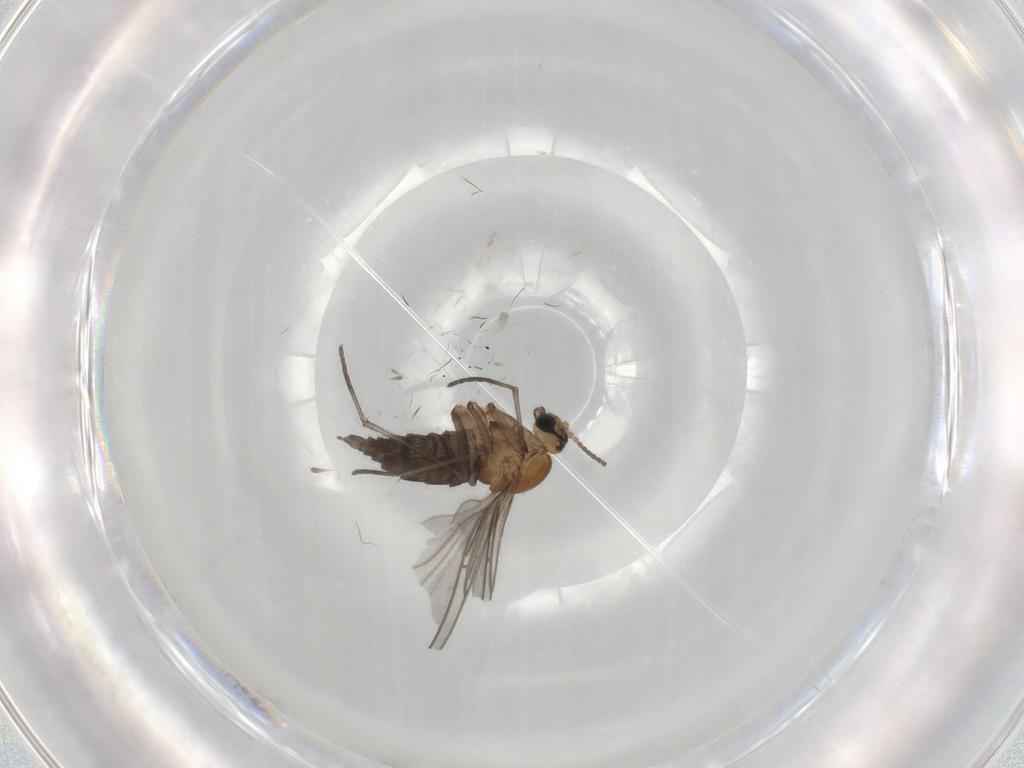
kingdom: Animalia
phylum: Arthropoda
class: Insecta
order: Diptera
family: Sciaridae
